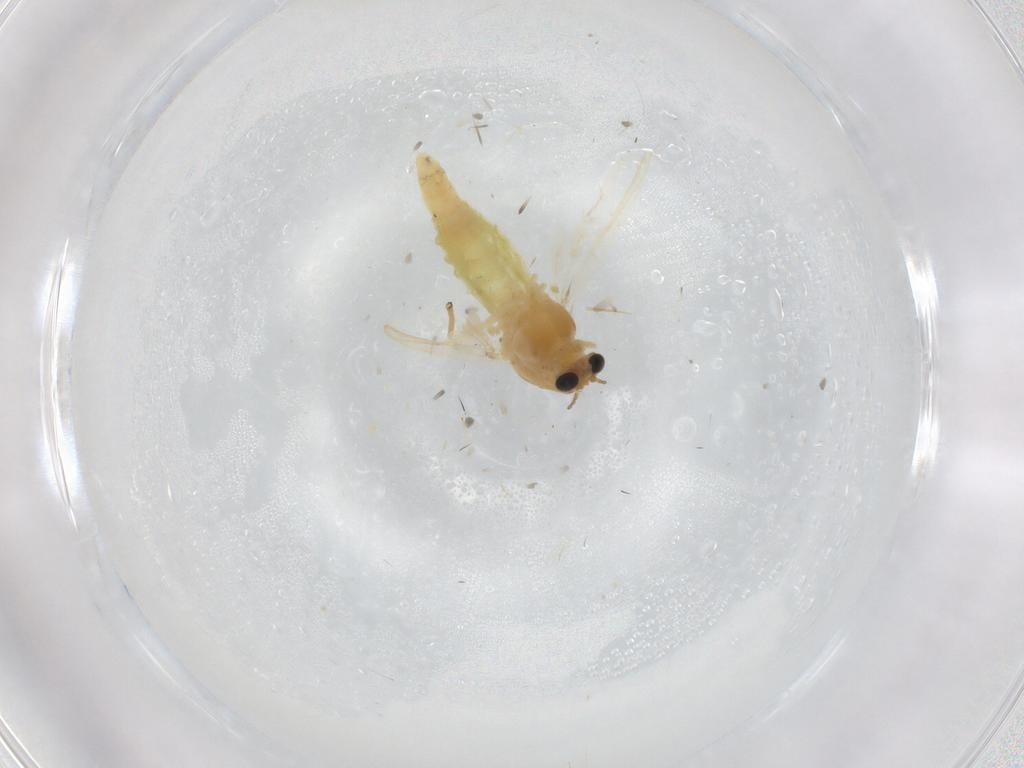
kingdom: Animalia
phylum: Arthropoda
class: Insecta
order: Diptera
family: Chironomidae
